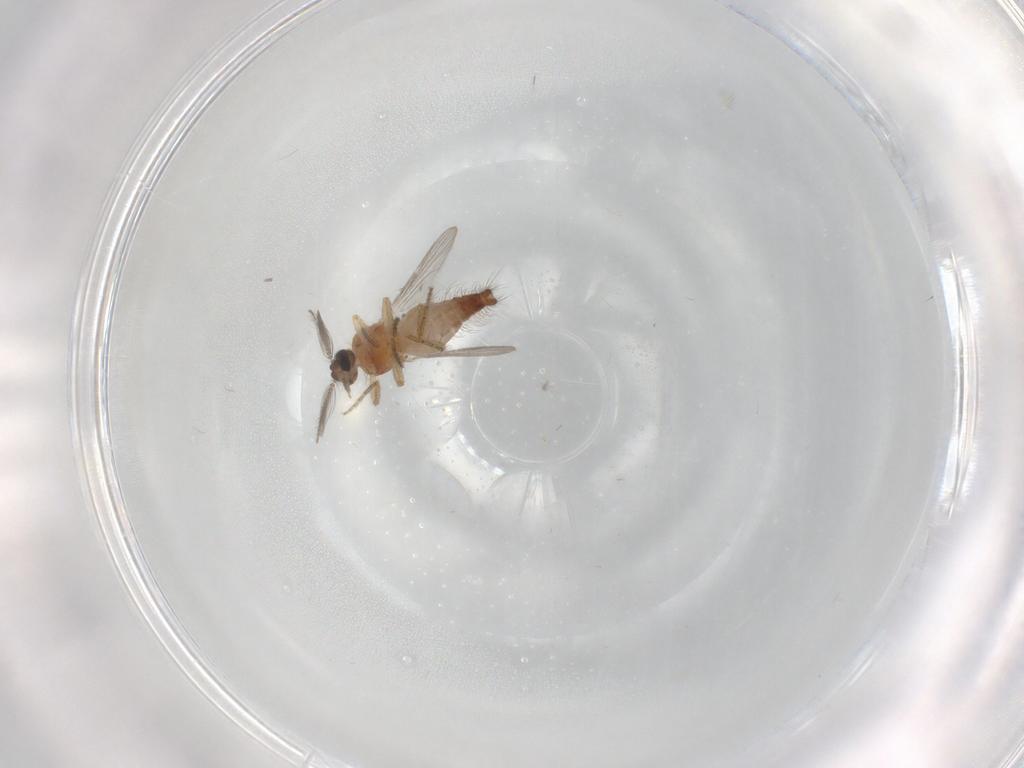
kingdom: Animalia
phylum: Arthropoda
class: Insecta
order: Diptera
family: Ceratopogonidae
